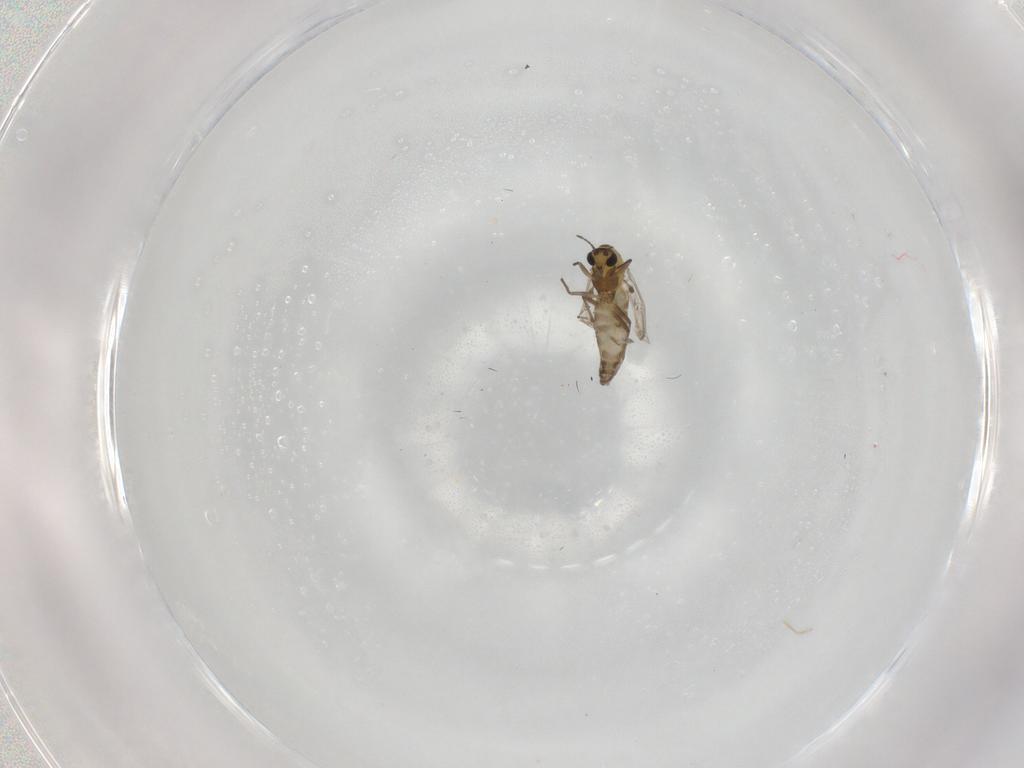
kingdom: Animalia
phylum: Arthropoda
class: Insecta
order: Diptera
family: Chironomidae
